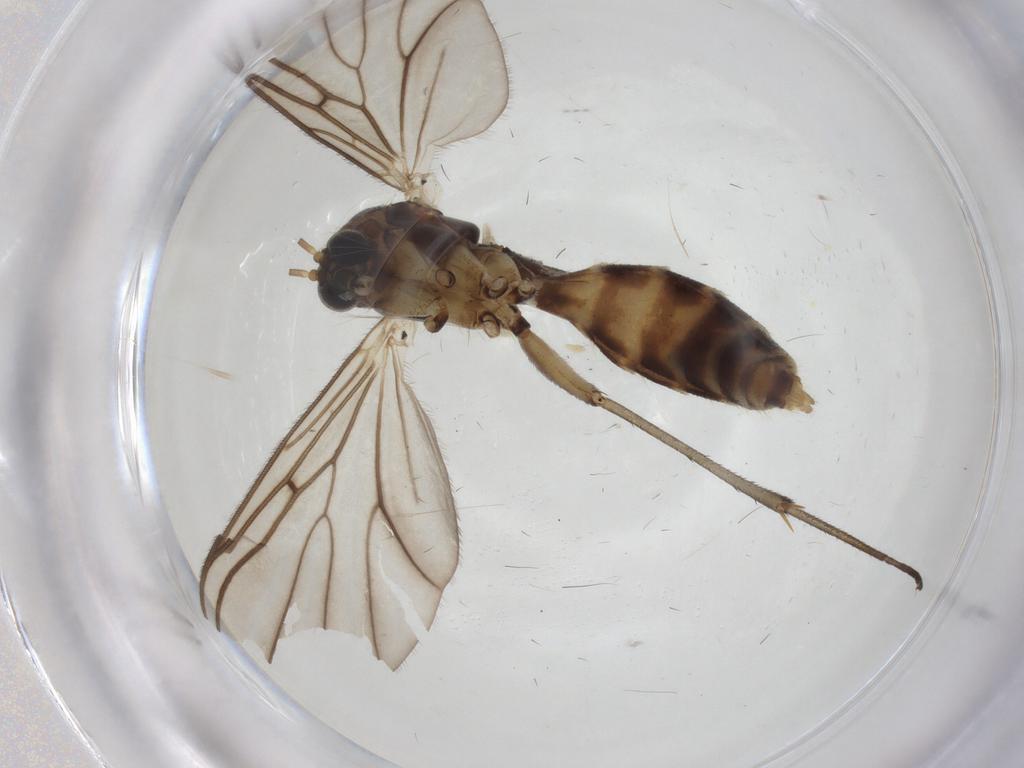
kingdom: Animalia
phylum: Arthropoda
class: Insecta
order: Diptera
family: Mycetophilidae
